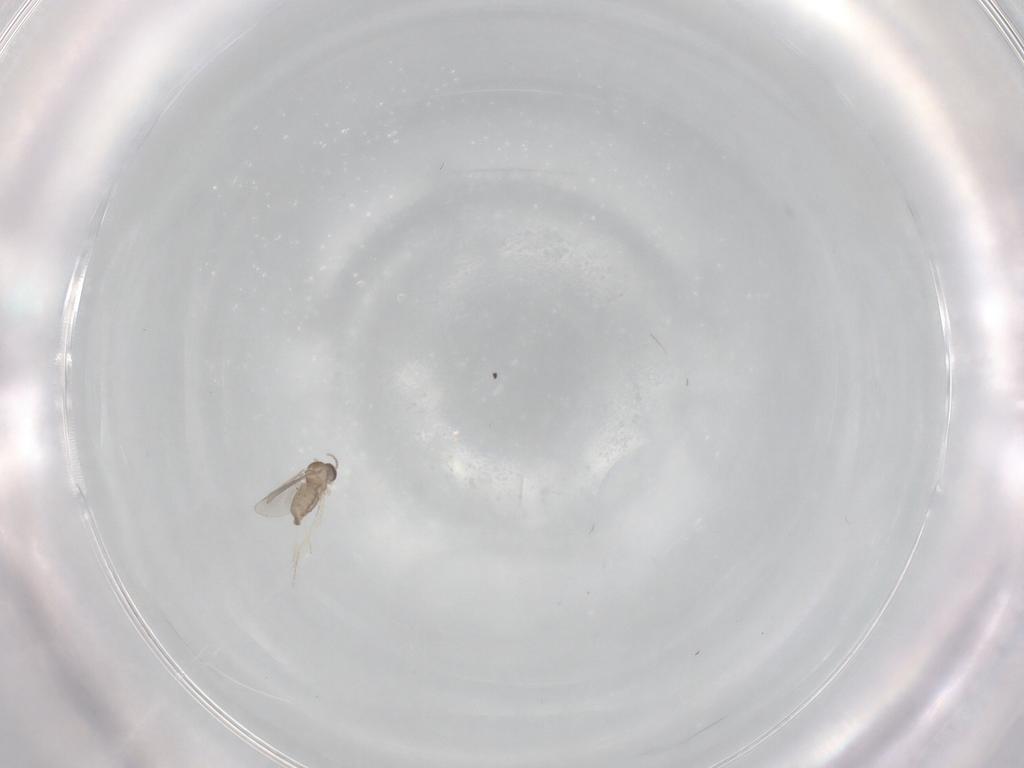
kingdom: Animalia
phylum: Arthropoda
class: Insecta
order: Diptera
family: Cecidomyiidae
